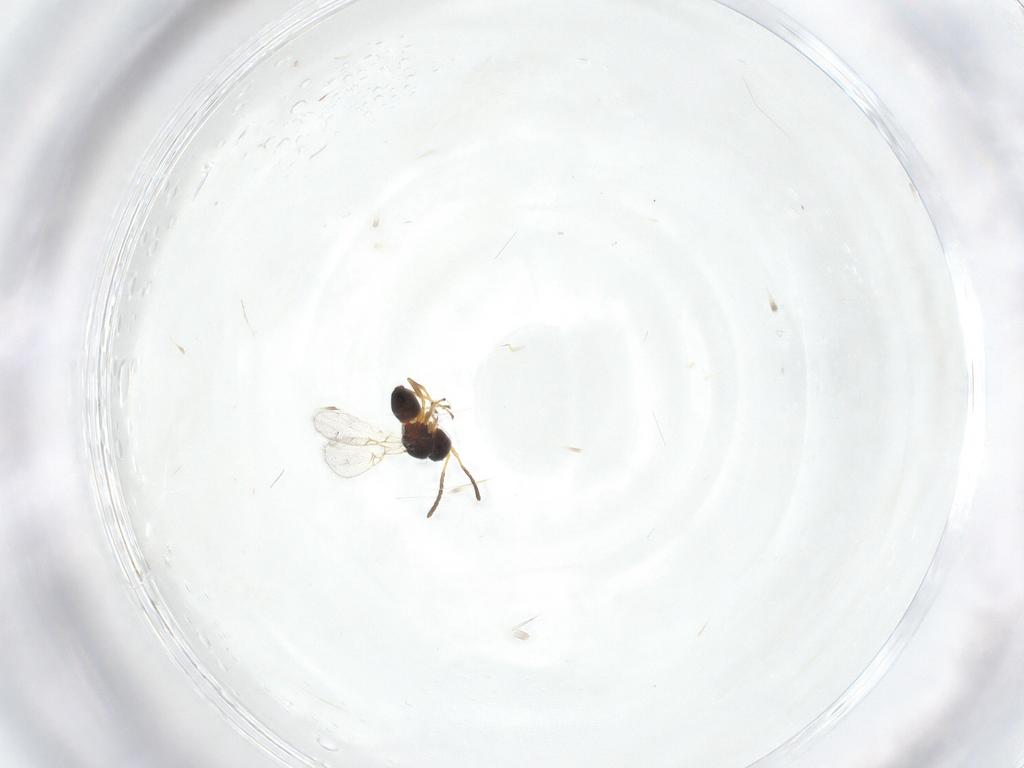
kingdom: Animalia
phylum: Arthropoda
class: Insecta
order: Hymenoptera
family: Figitidae
